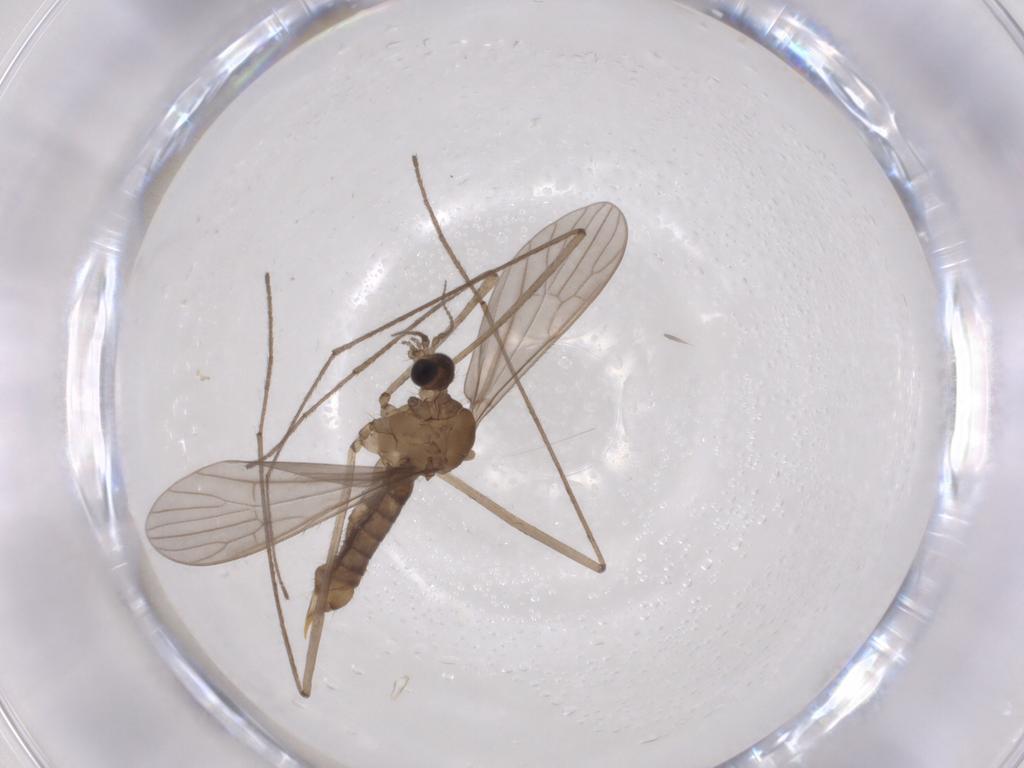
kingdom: Animalia
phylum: Arthropoda
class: Insecta
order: Diptera
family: Limoniidae
